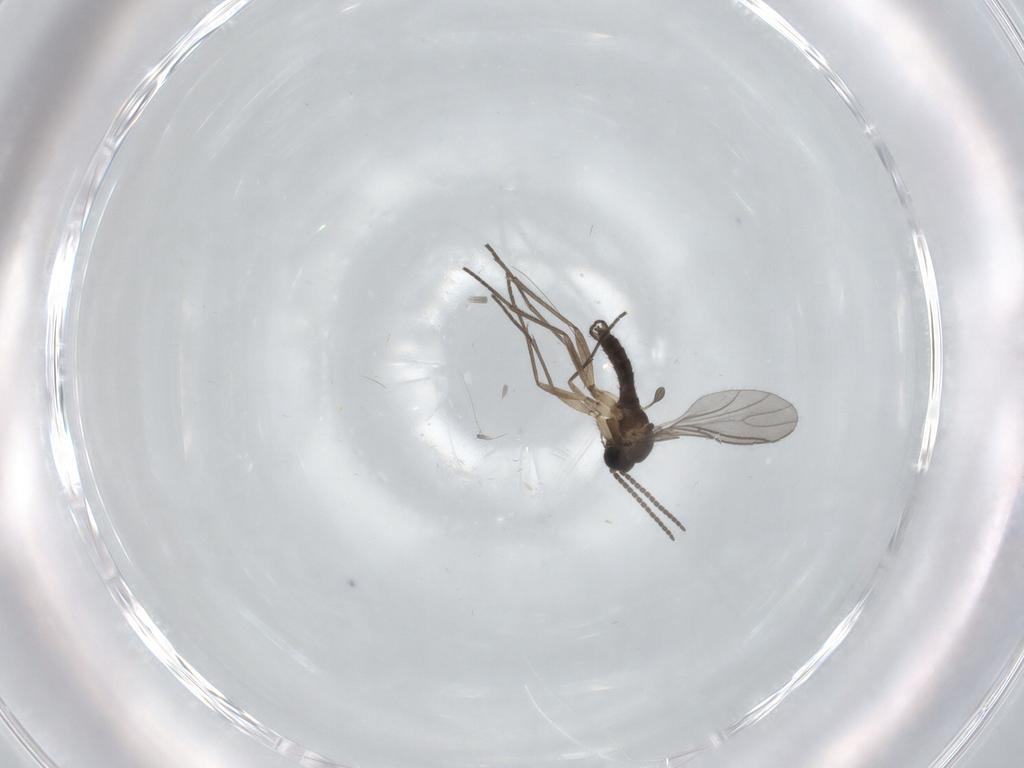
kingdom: Animalia
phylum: Arthropoda
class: Insecta
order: Diptera
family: Sciaridae
